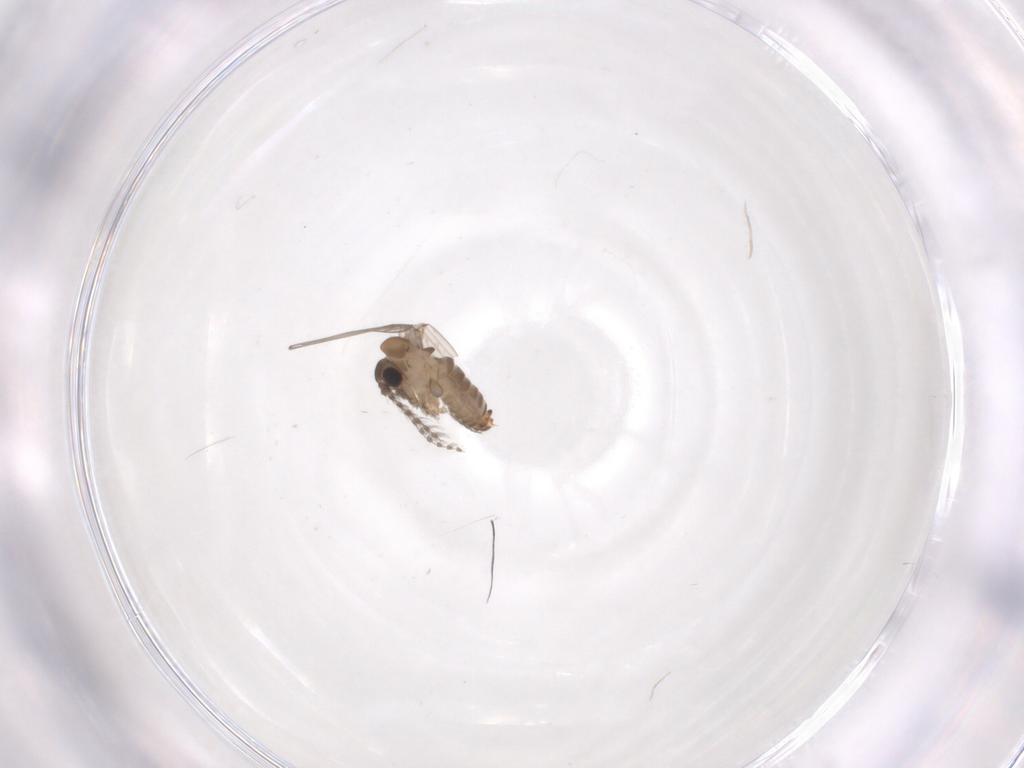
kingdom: Animalia
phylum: Arthropoda
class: Insecta
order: Diptera
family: Psychodidae
